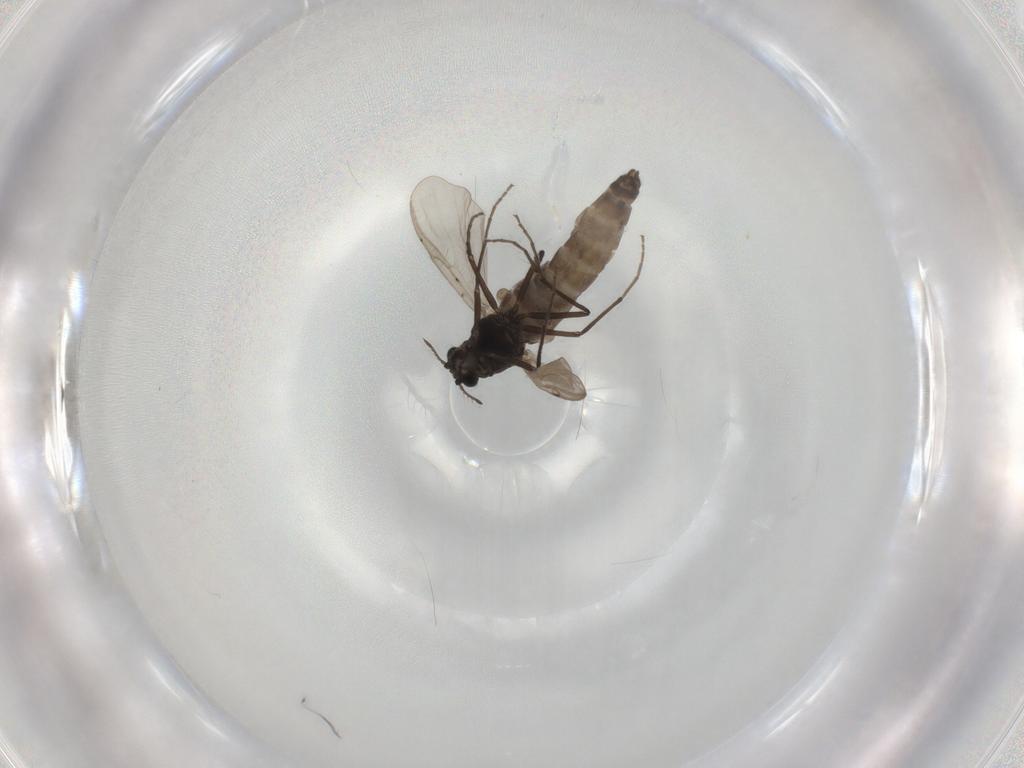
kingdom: Animalia
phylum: Arthropoda
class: Insecta
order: Diptera
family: Chironomidae
